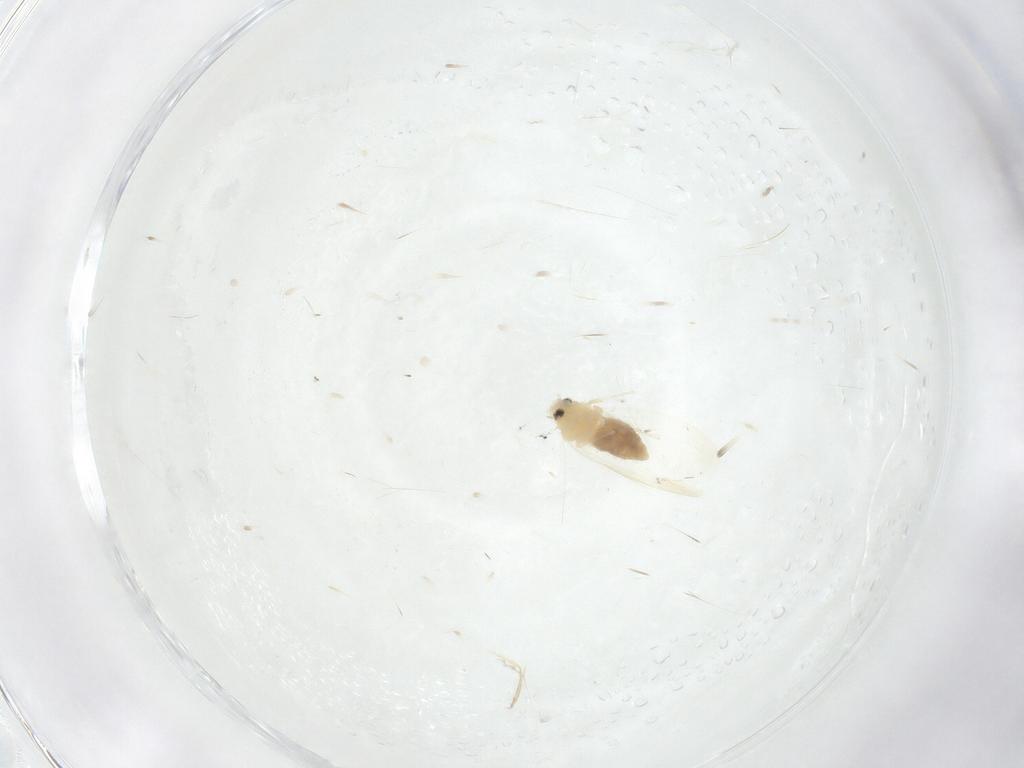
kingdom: Animalia
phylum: Arthropoda
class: Insecta
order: Hemiptera
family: Aleyrodidae
